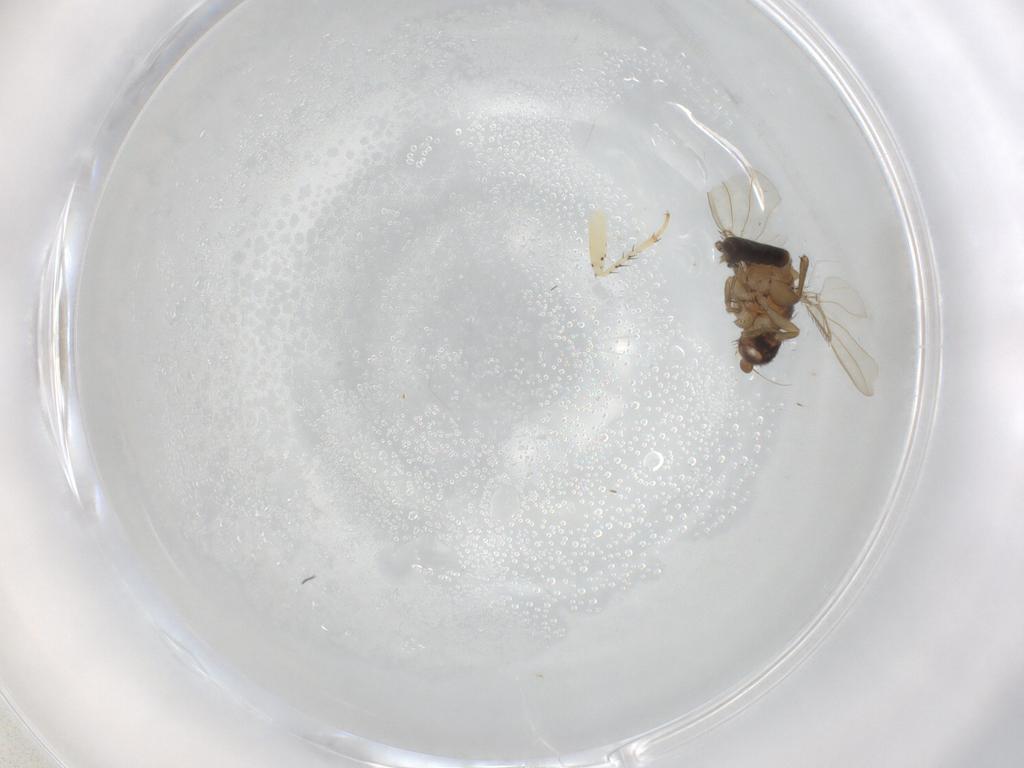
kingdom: Animalia
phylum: Arthropoda
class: Insecta
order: Diptera
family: Phoridae
